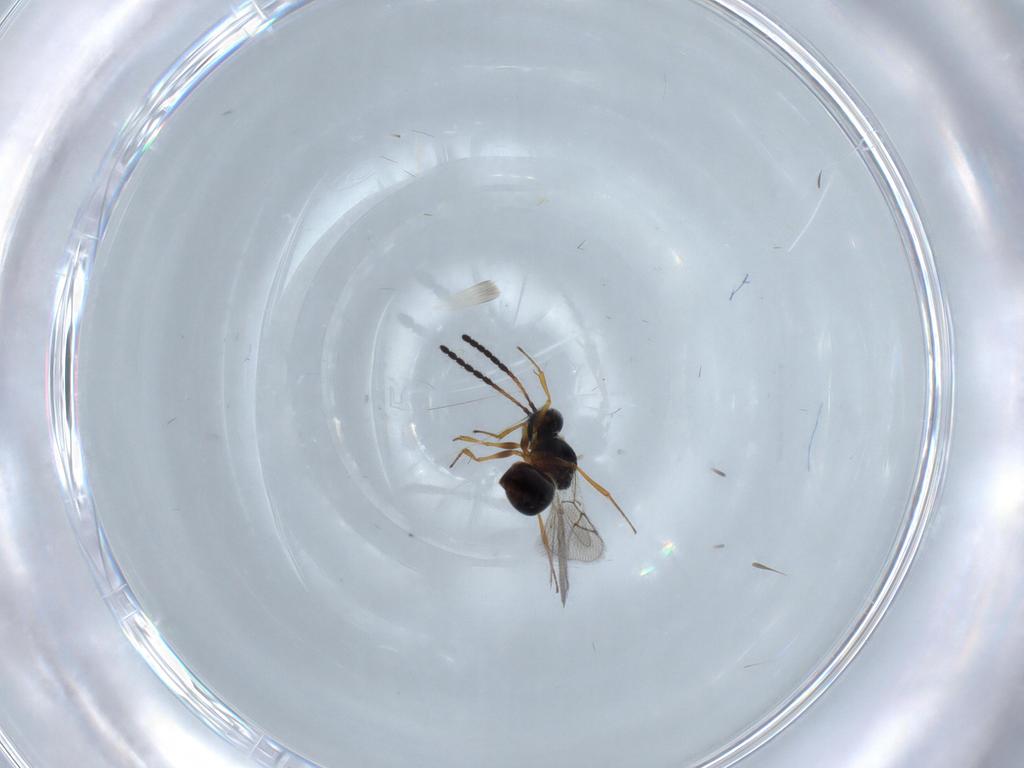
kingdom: Animalia
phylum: Arthropoda
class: Insecta
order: Hymenoptera
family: Figitidae
